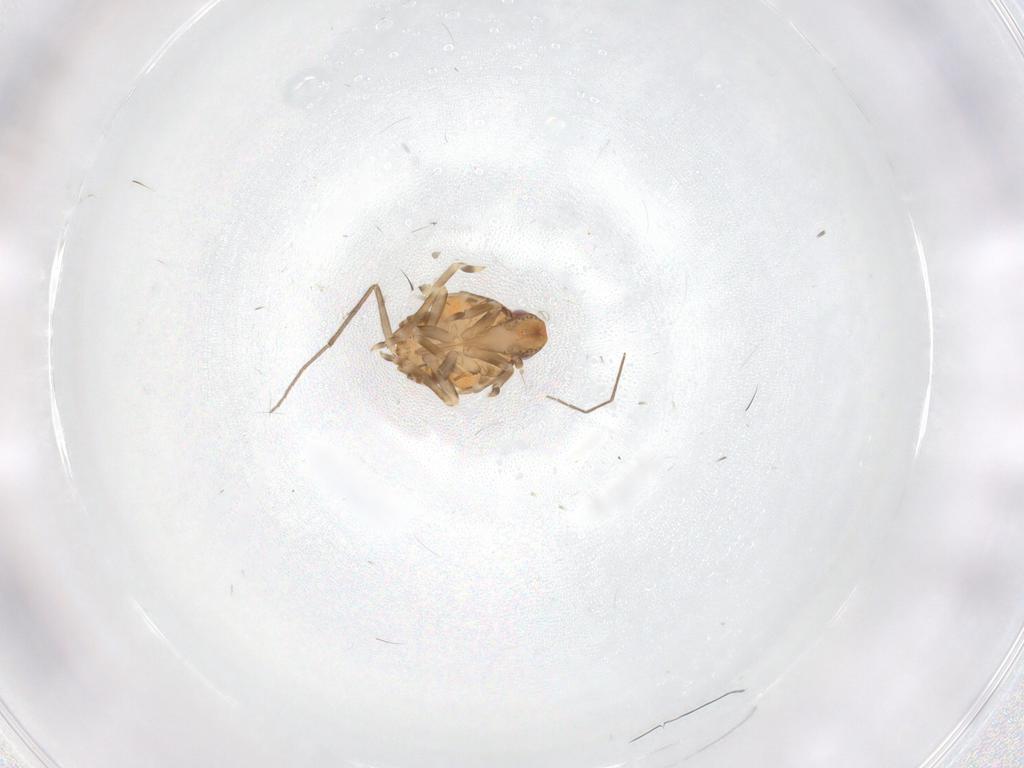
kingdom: Animalia
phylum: Arthropoda
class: Insecta
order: Hemiptera
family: Flatidae
